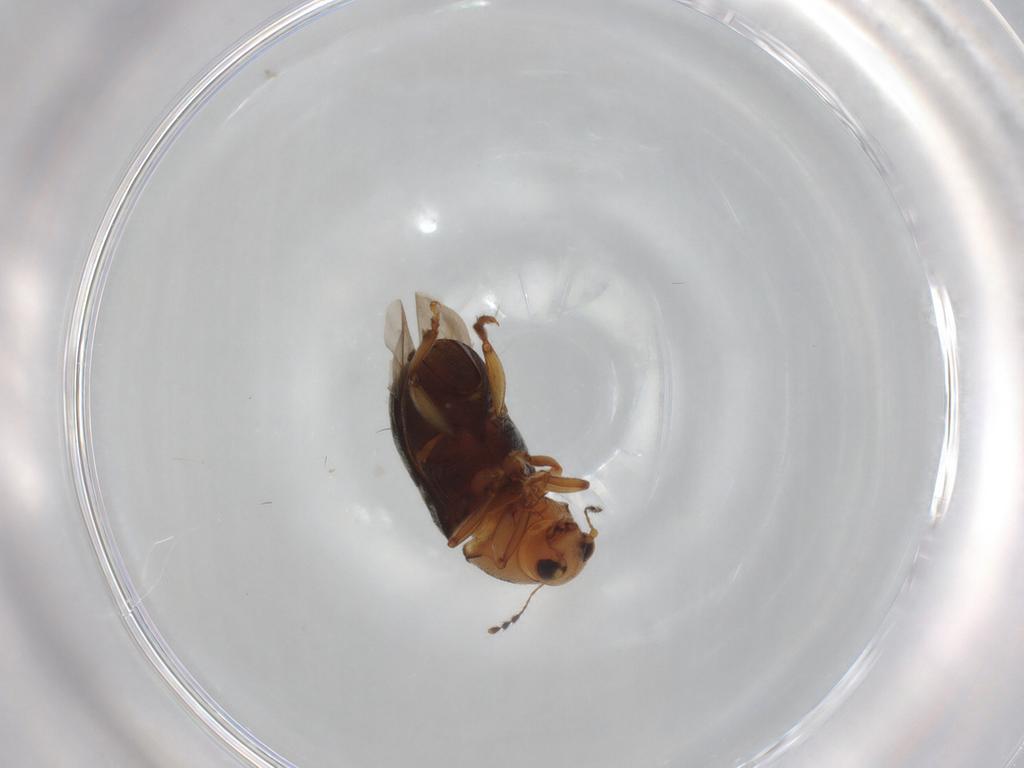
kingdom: Animalia
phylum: Arthropoda
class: Insecta
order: Coleoptera
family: Anthribidae
